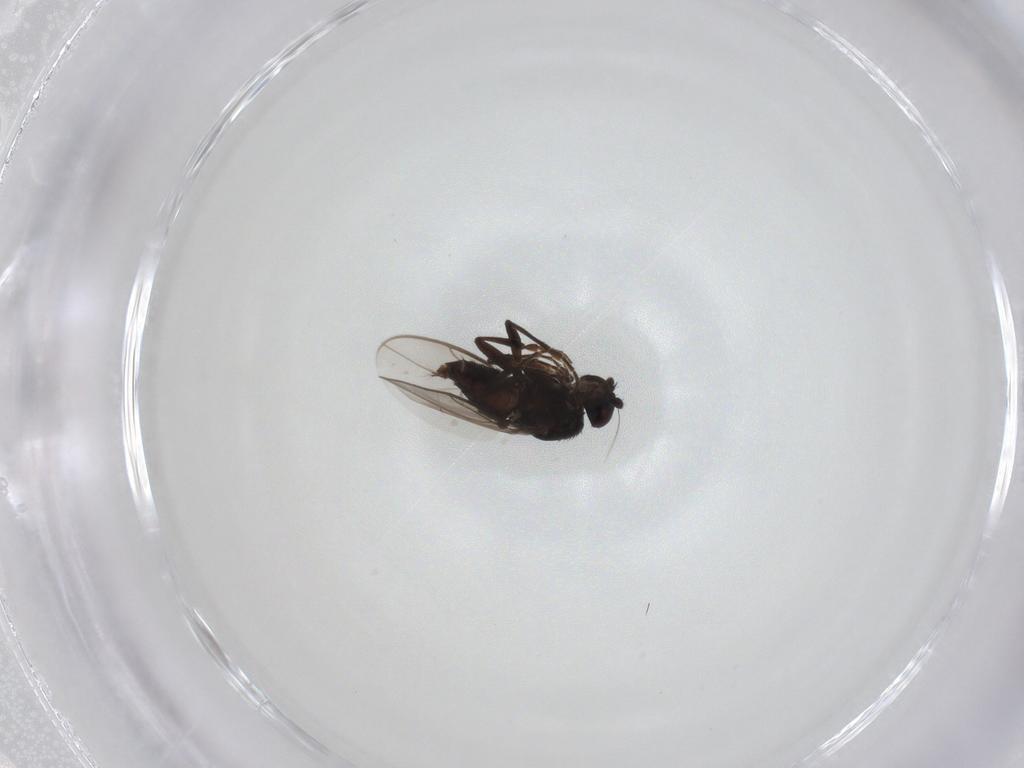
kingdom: Animalia
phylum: Arthropoda
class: Insecta
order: Diptera
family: Sphaeroceridae
